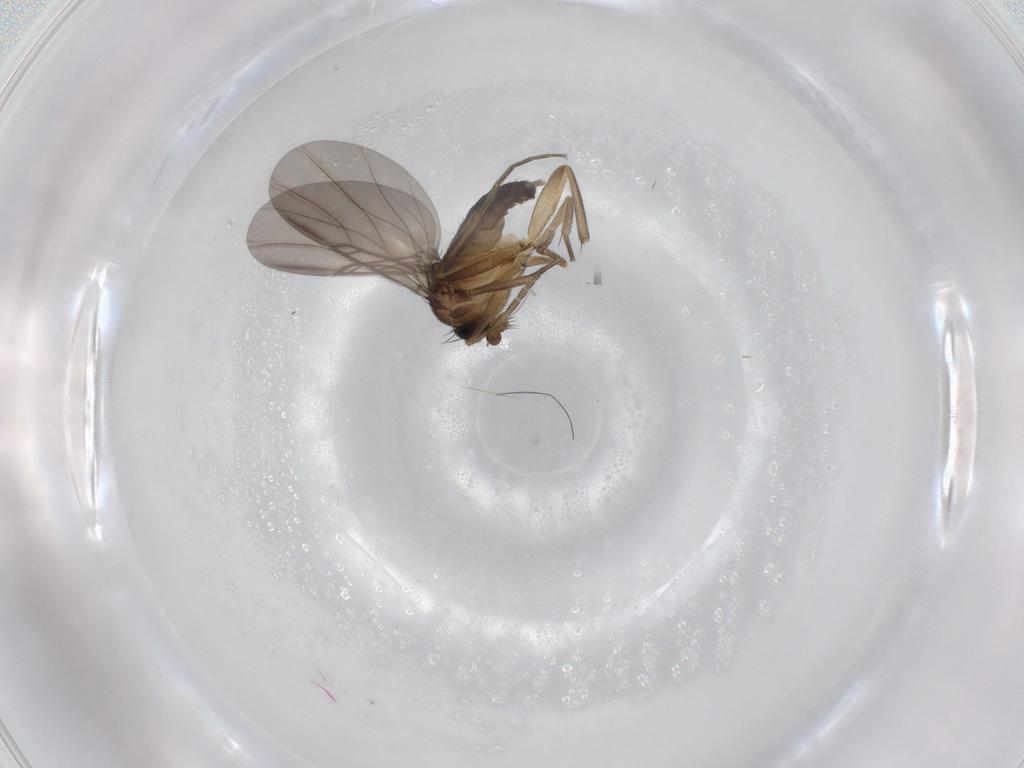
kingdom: Animalia
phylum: Arthropoda
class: Insecta
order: Diptera
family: Phoridae
